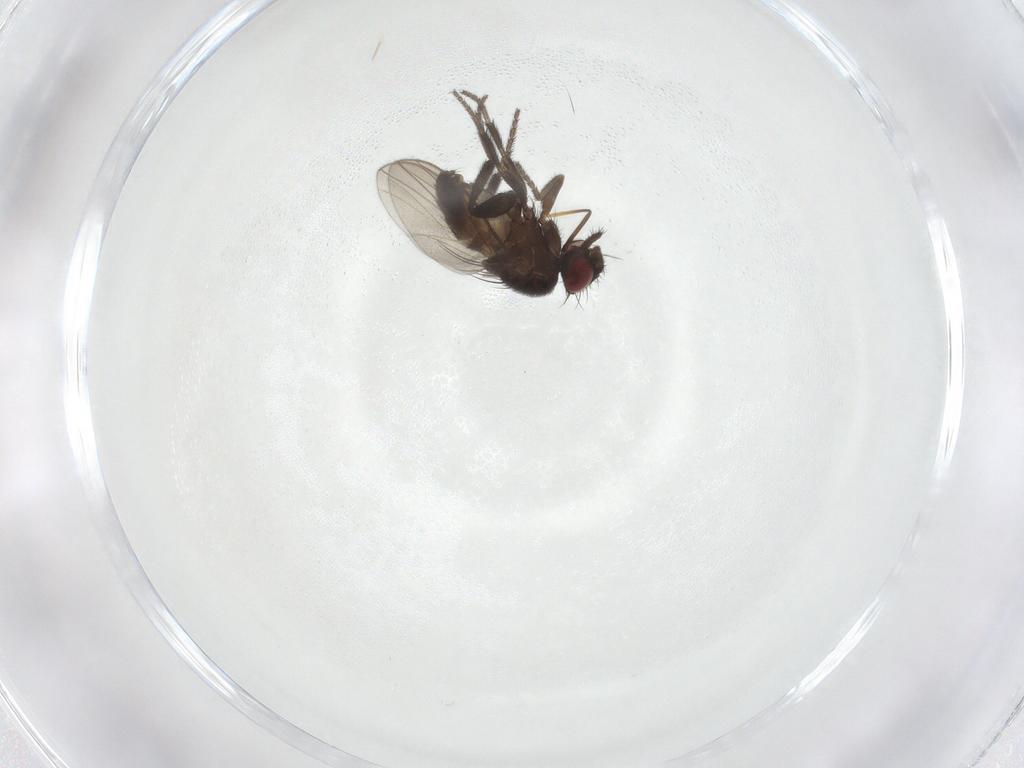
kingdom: Animalia
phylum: Arthropoda
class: Insecta
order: Diptera
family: Milichiidae
